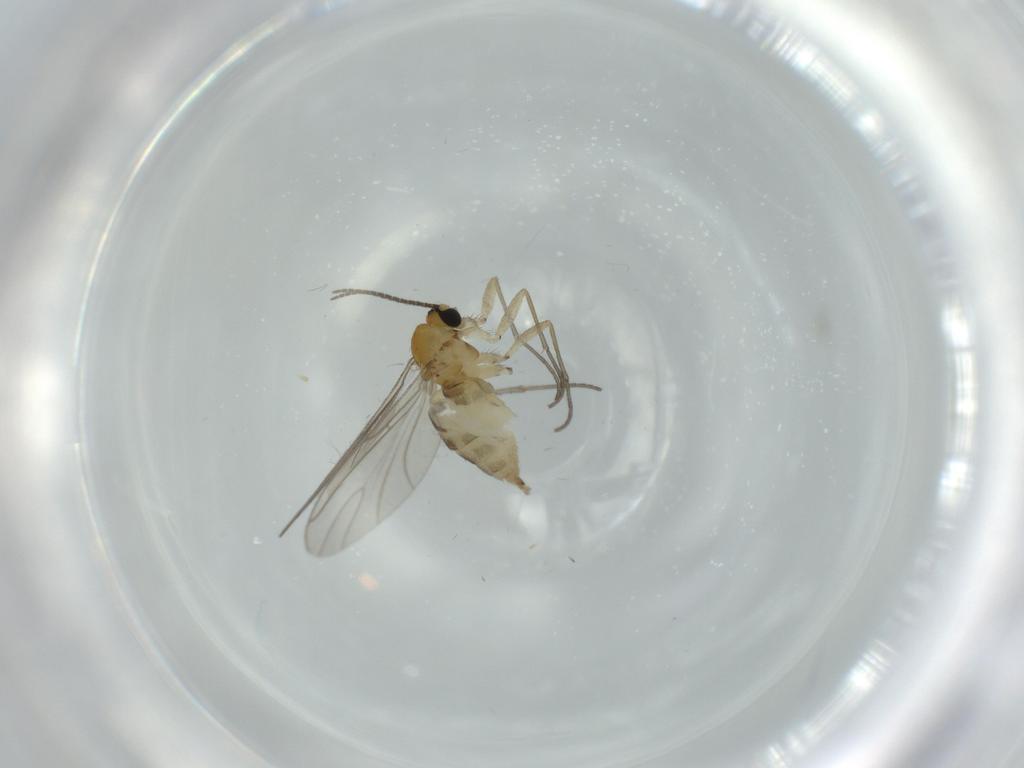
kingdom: Animalia
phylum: Arthropoda
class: Insecta
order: Diptera
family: Sciaridae
